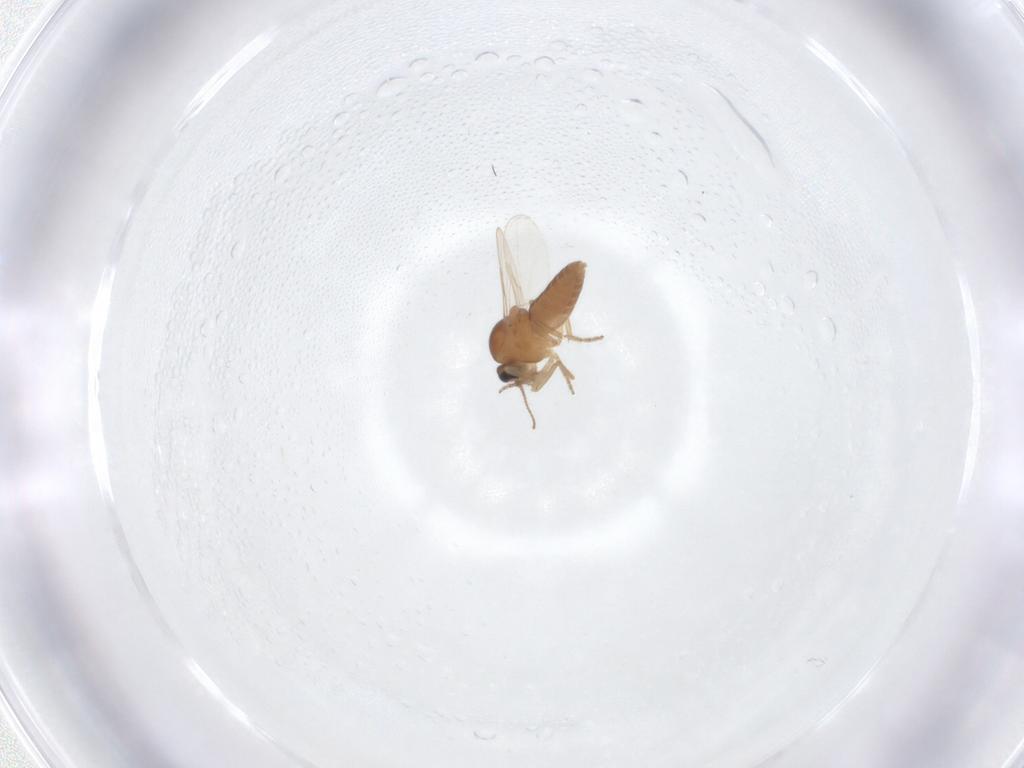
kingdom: Animalia
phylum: Arthropoda
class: Insecta
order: Diptera
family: Ceratopogonidae
